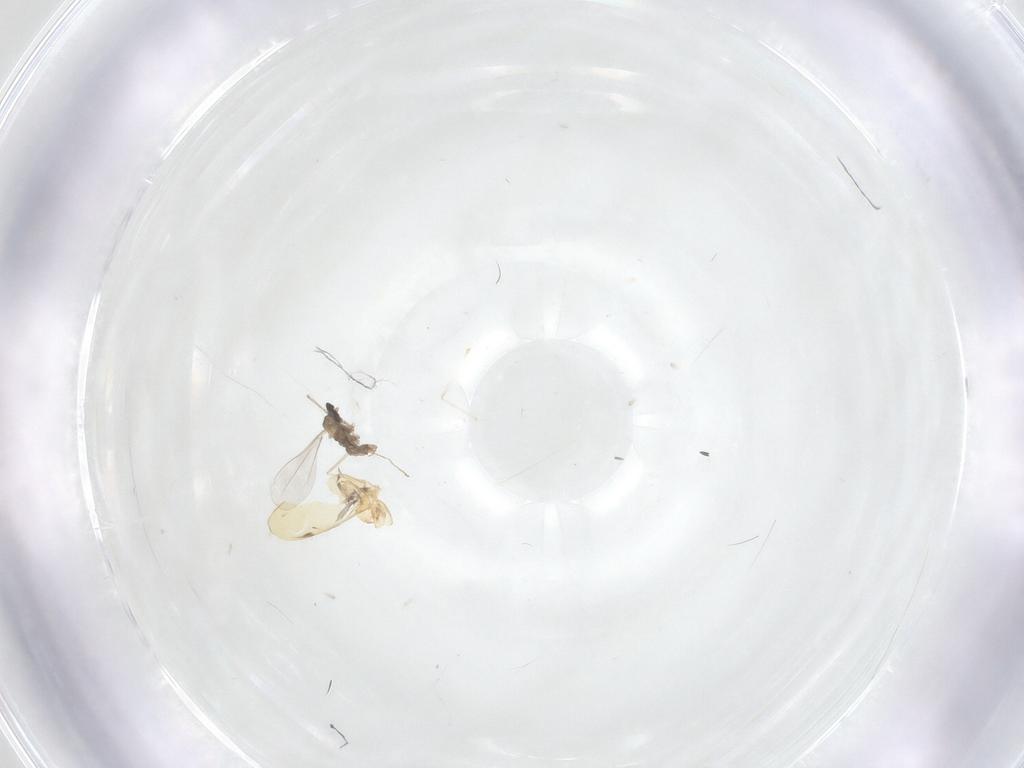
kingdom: Animalia
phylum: Arthropoda
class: Insecta
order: Diptera
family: Cecidomyiidae
